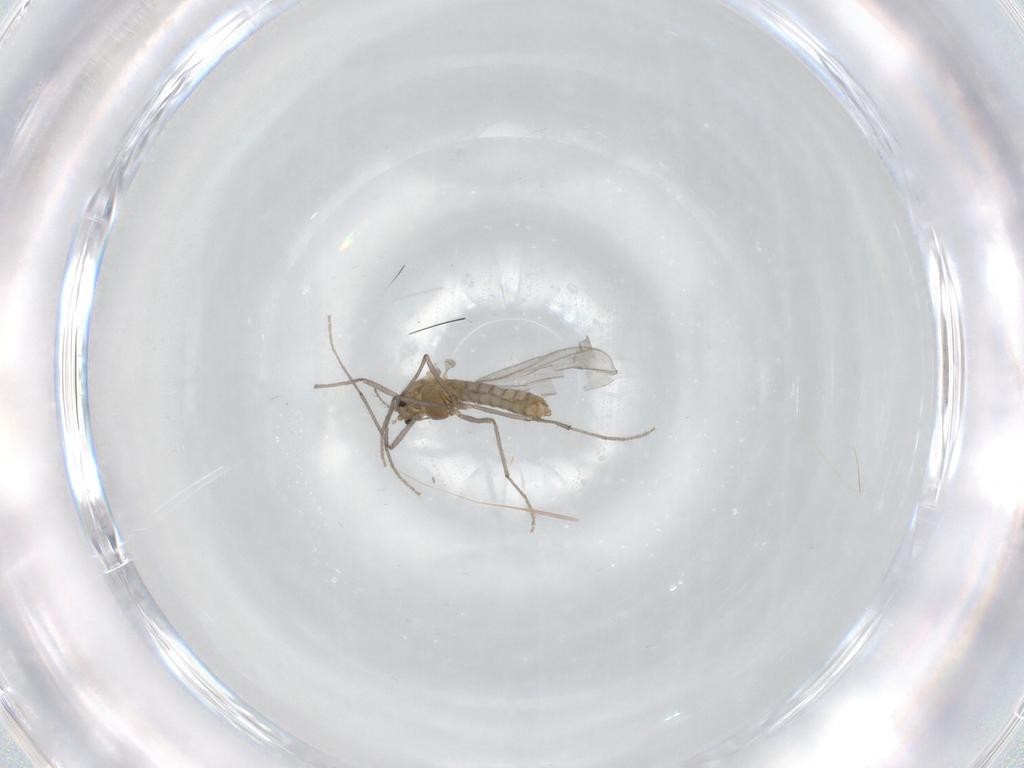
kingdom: Animalia
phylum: Arthropoda
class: Insecta
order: Diptera
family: Chironomidae
